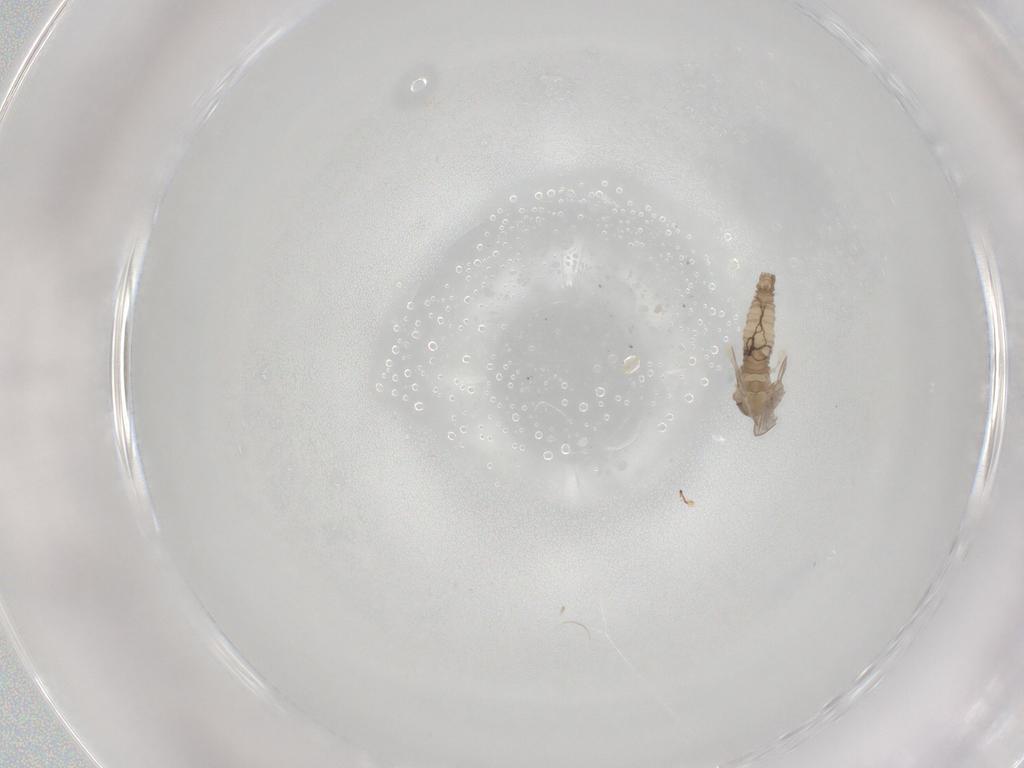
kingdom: Animalia
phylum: Arthropoda
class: Insecta
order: Diptera
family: Psychodidae
